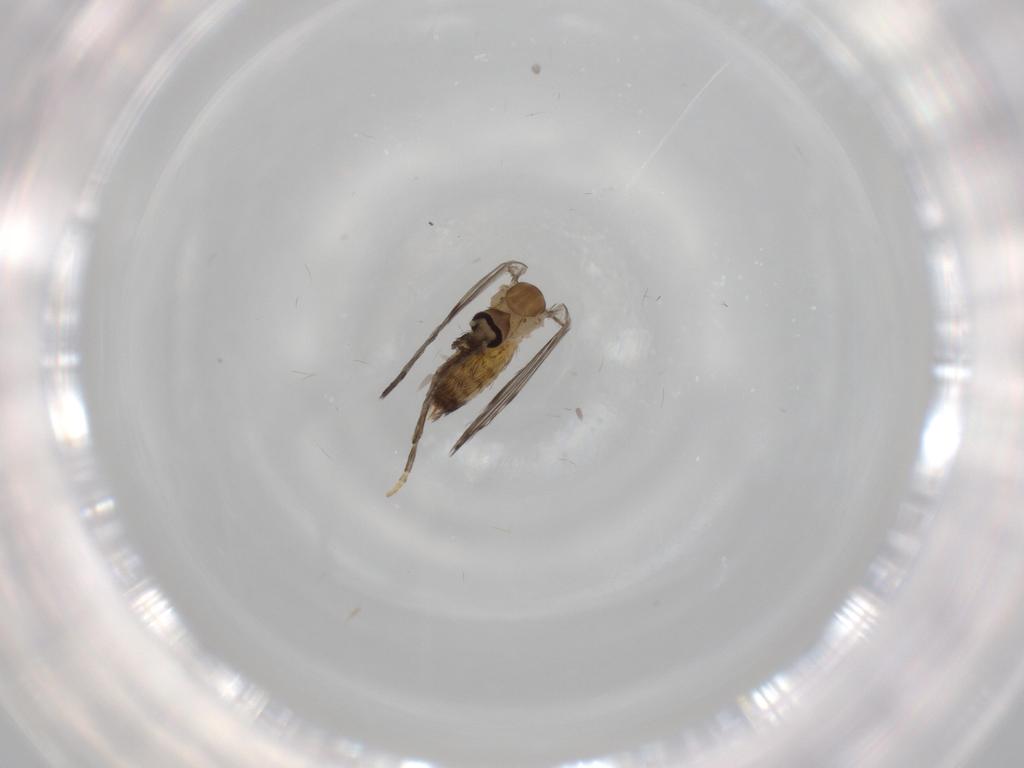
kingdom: Animalia
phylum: Arthropoda
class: Insecta
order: Diptera
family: Psychodidae
